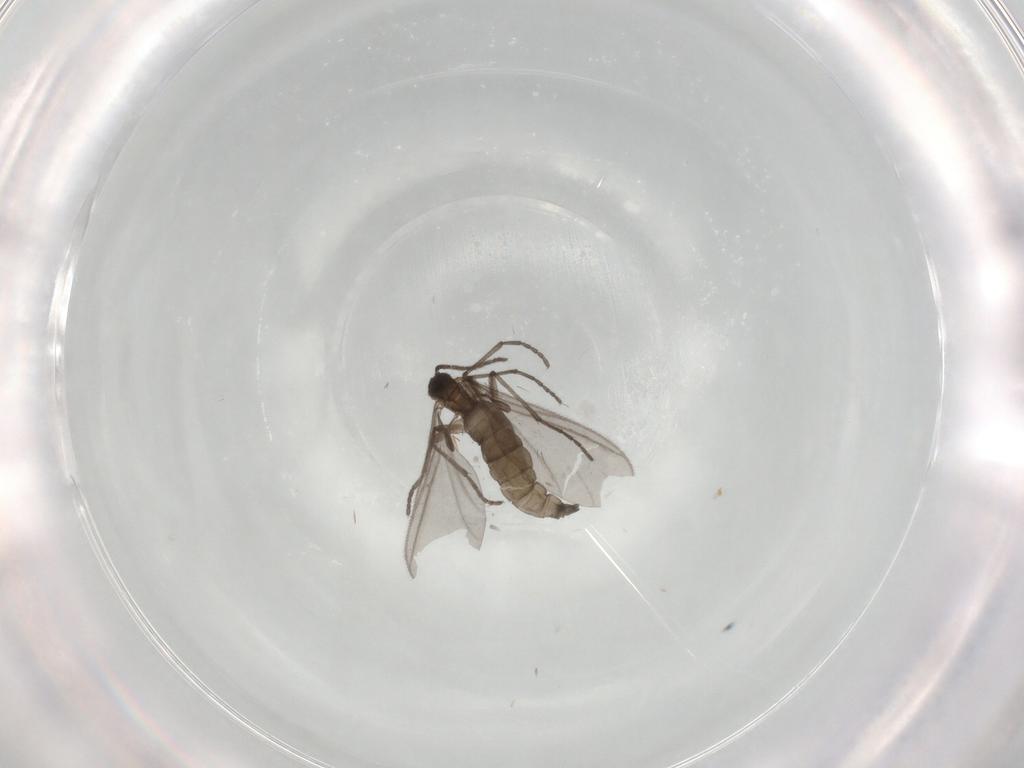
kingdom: Animalia
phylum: Arthropoda
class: Insecta
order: Diptera
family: Sciaridae
